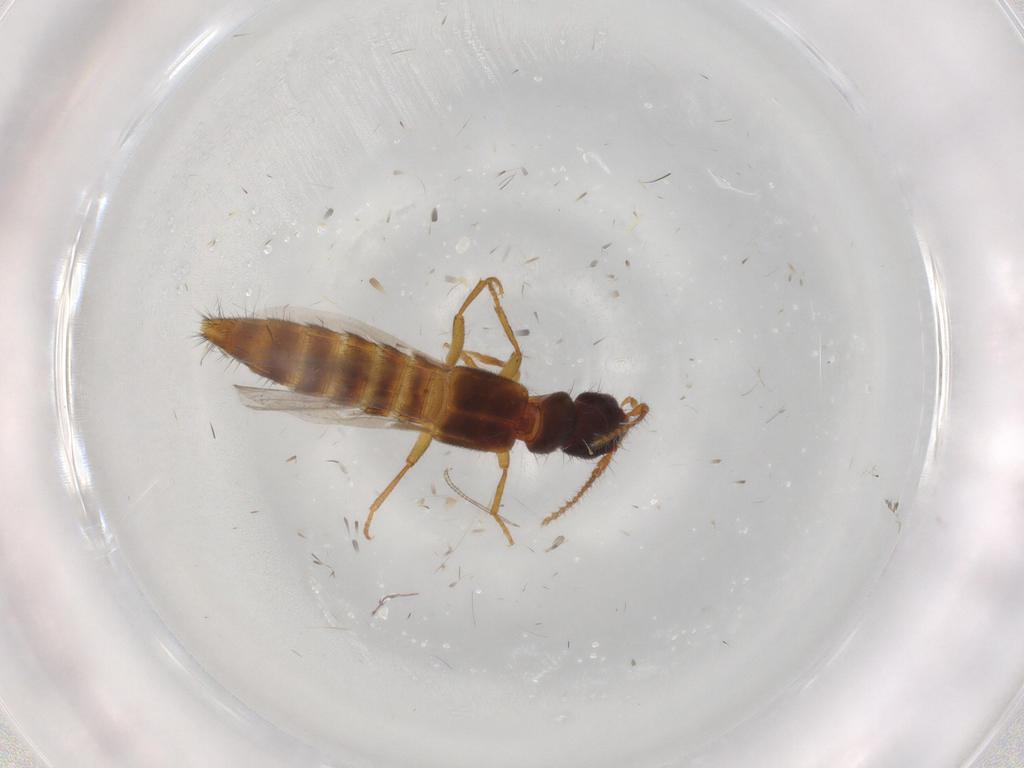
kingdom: Animalia
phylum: Arthropoda
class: Insecta
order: Coleoptera
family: Staphylinidae
